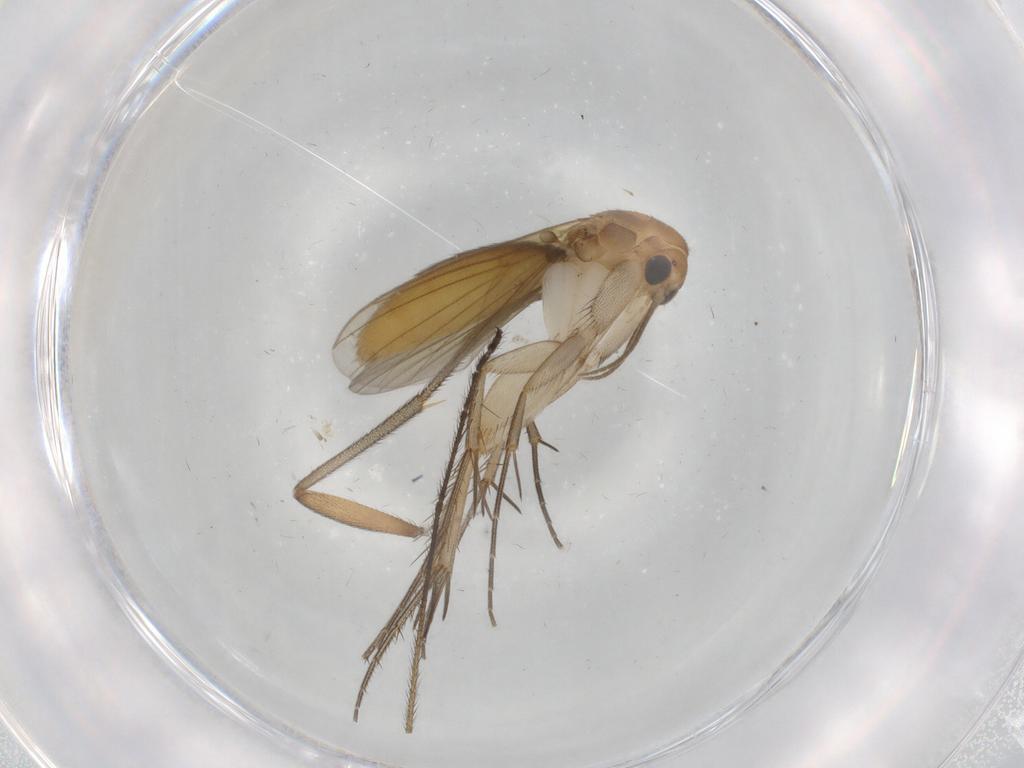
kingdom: Animalia
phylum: Arthropoda
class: Insecta
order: Diptera
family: Mycetophilidae
